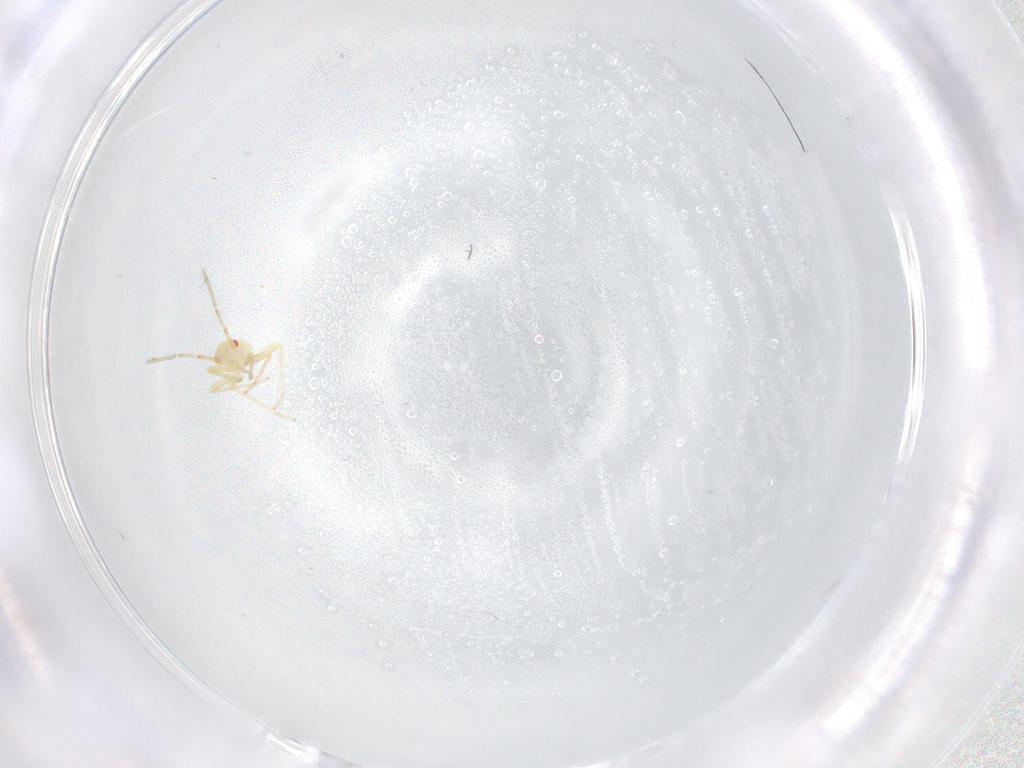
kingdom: Animalia
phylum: Arthropoda
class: Insecta
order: Hemiptera
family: Miridae
